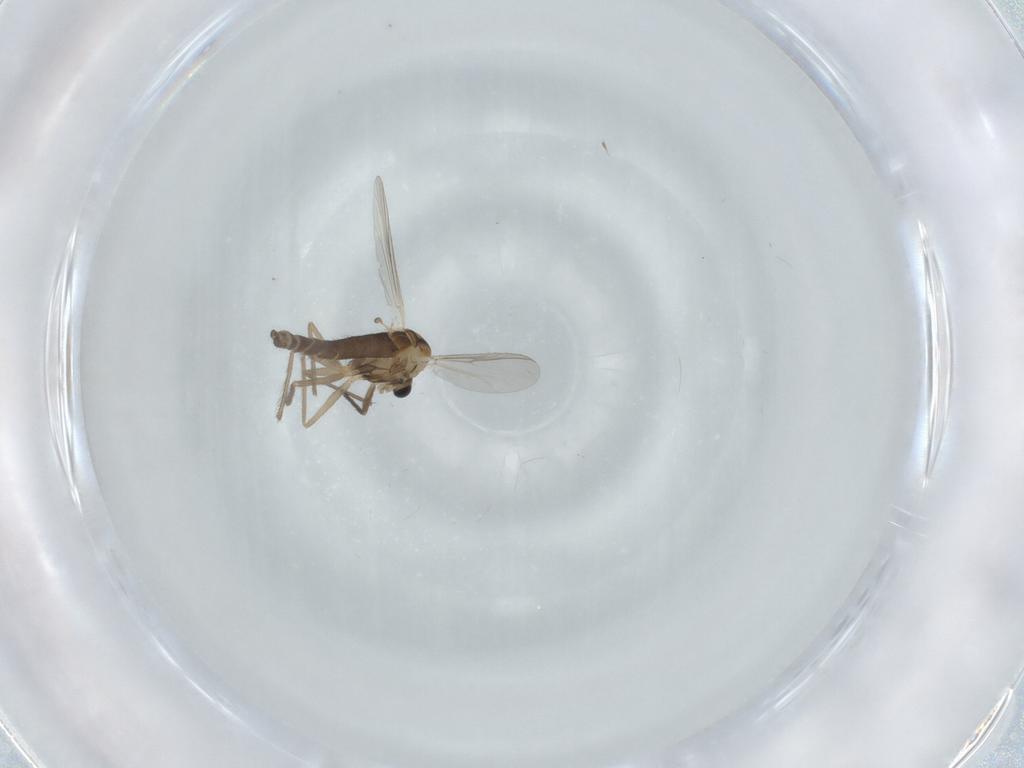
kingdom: Animalia
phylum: Arthropoda
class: Insecta
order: Diptera
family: Chironomidae
